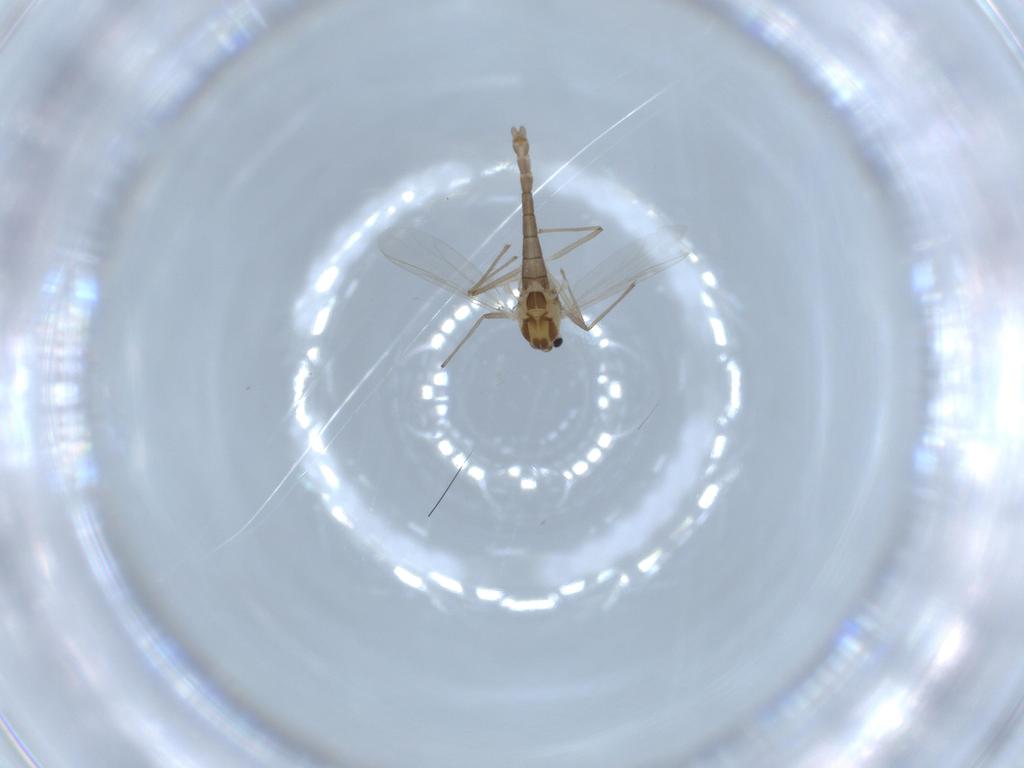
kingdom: Animalia
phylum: Arthropoda
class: Insecta
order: Diptera
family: Chironomidae
